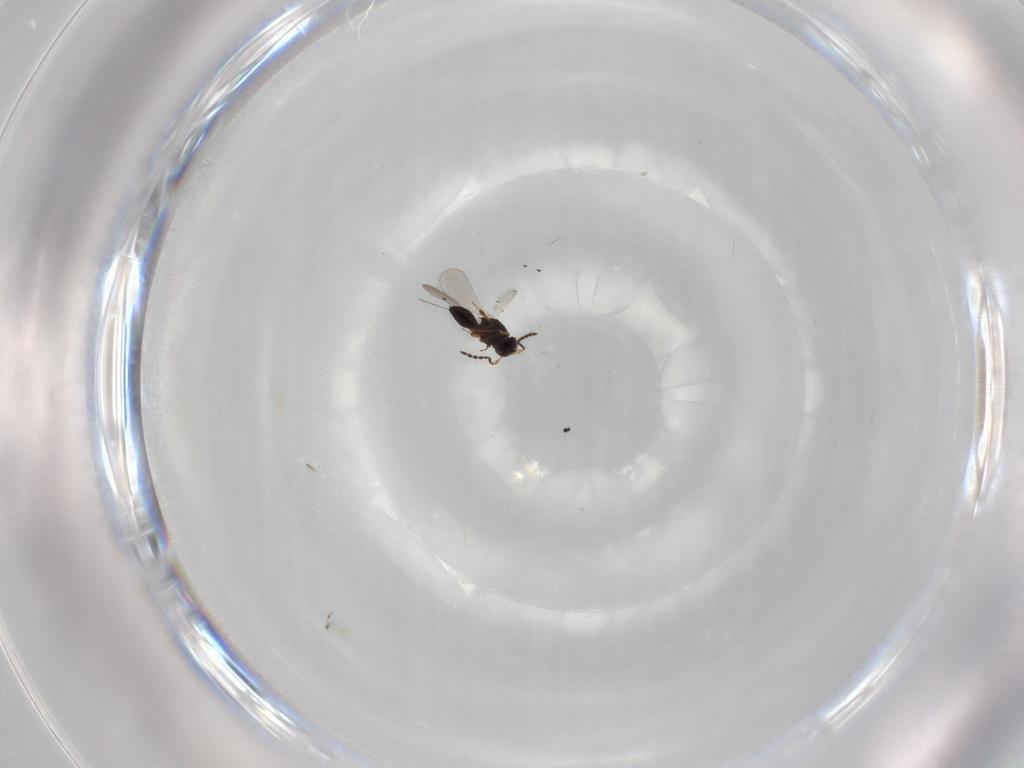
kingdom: Animalia
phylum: Arthropoda
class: Insecta
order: Hymenoptera
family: Platygastridae
